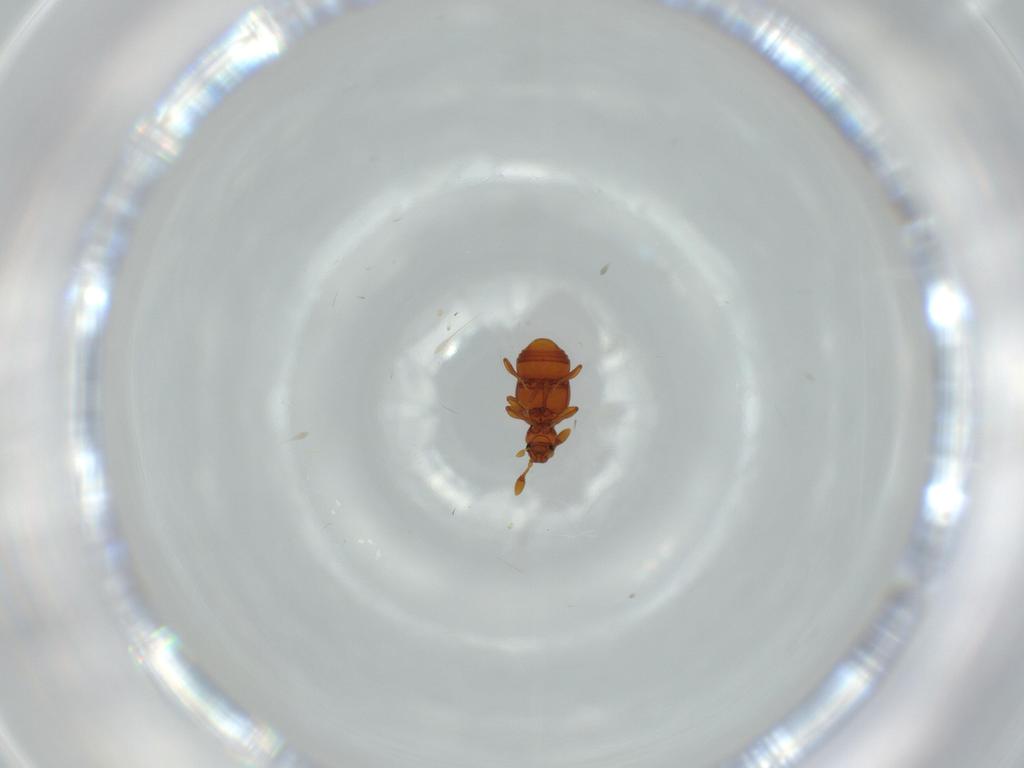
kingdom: Animalia
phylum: Arthropoda
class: Insecta
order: Coleoptera
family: Staphylinidae
